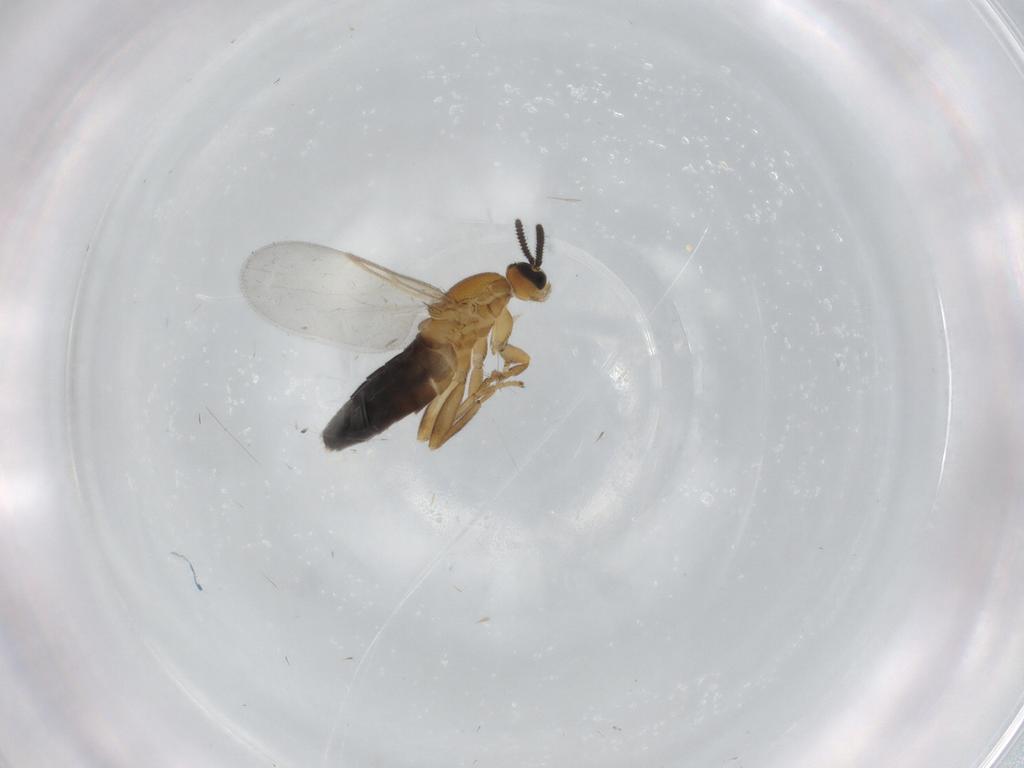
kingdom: Animalia
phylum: Arthropoda
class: Insecta
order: Diptera
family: Scatopsidae
